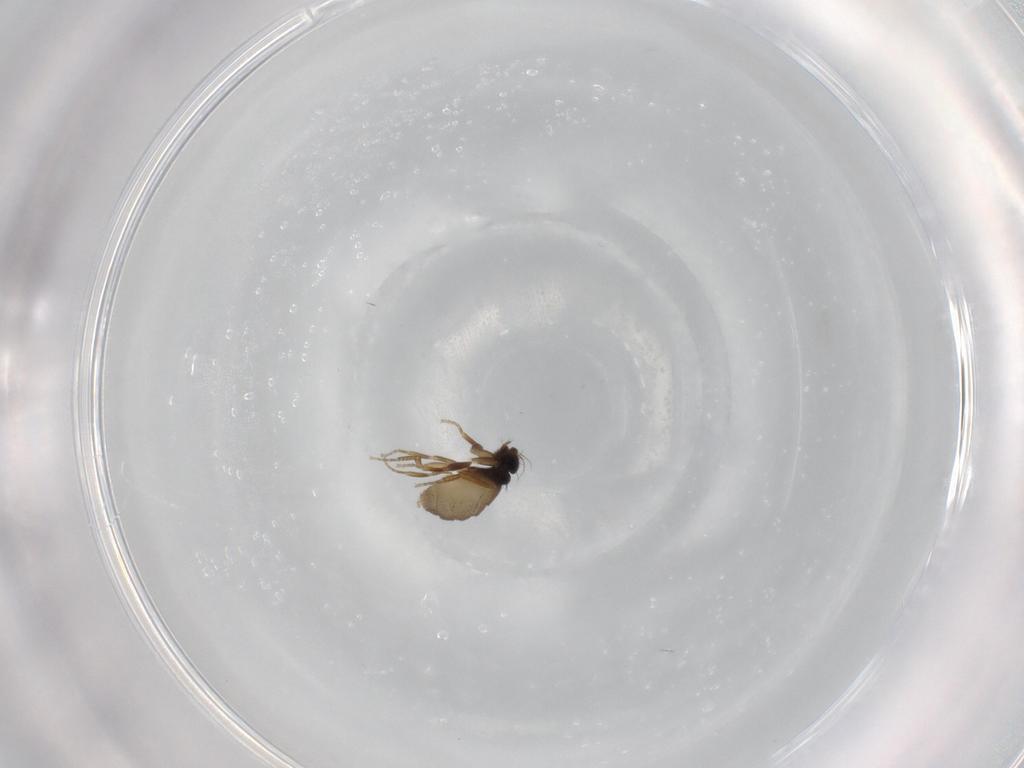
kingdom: Animalia
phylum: Arthropoda
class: Insecta
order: Diptera
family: Phoridae
